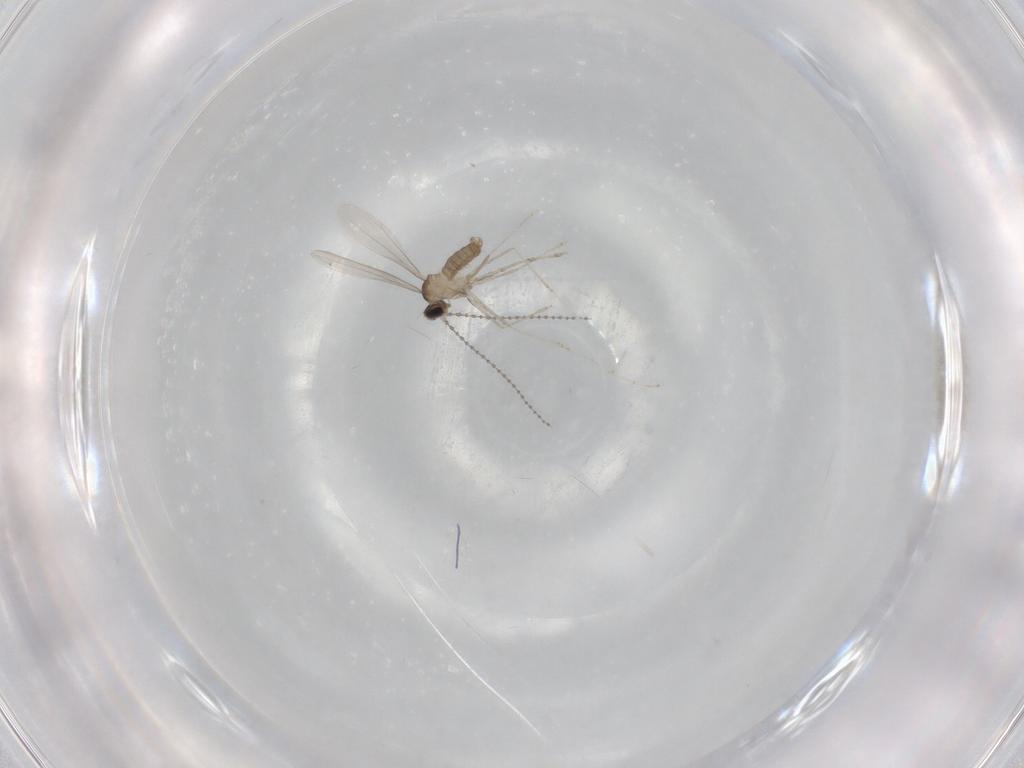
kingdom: Animalia
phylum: Arthropoda
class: Insecta
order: Diptera
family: Cecidomyiidae
